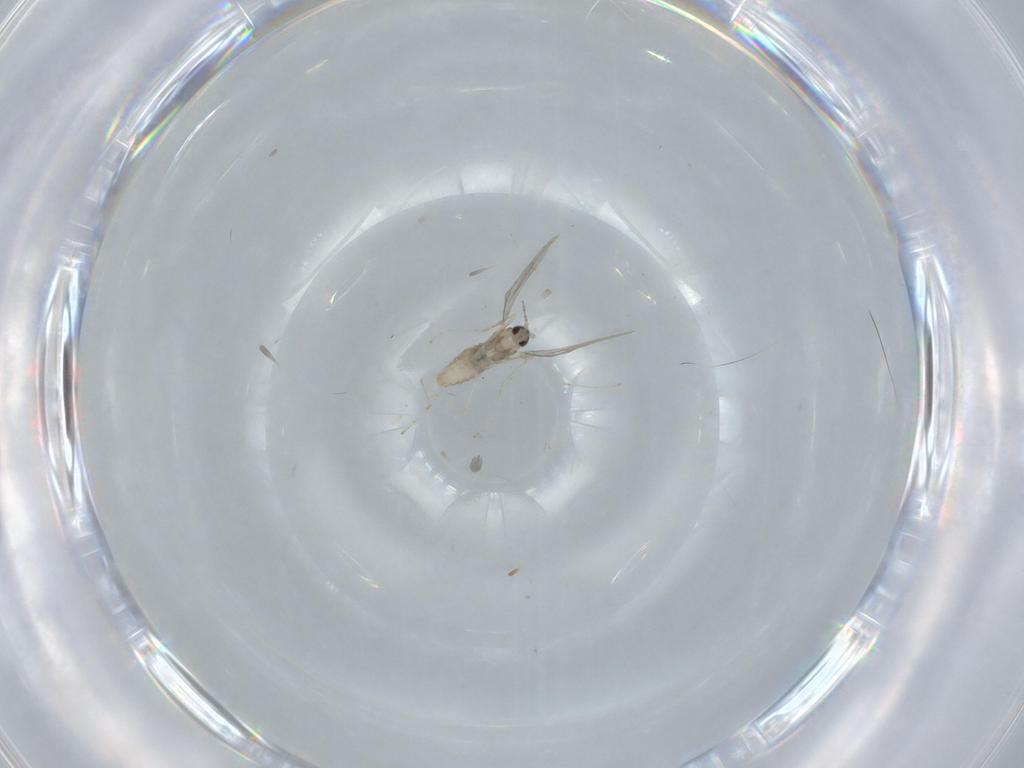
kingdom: Animalia
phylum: Arthropoda
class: Insecta
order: Diptera
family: Cecidomyiidae
